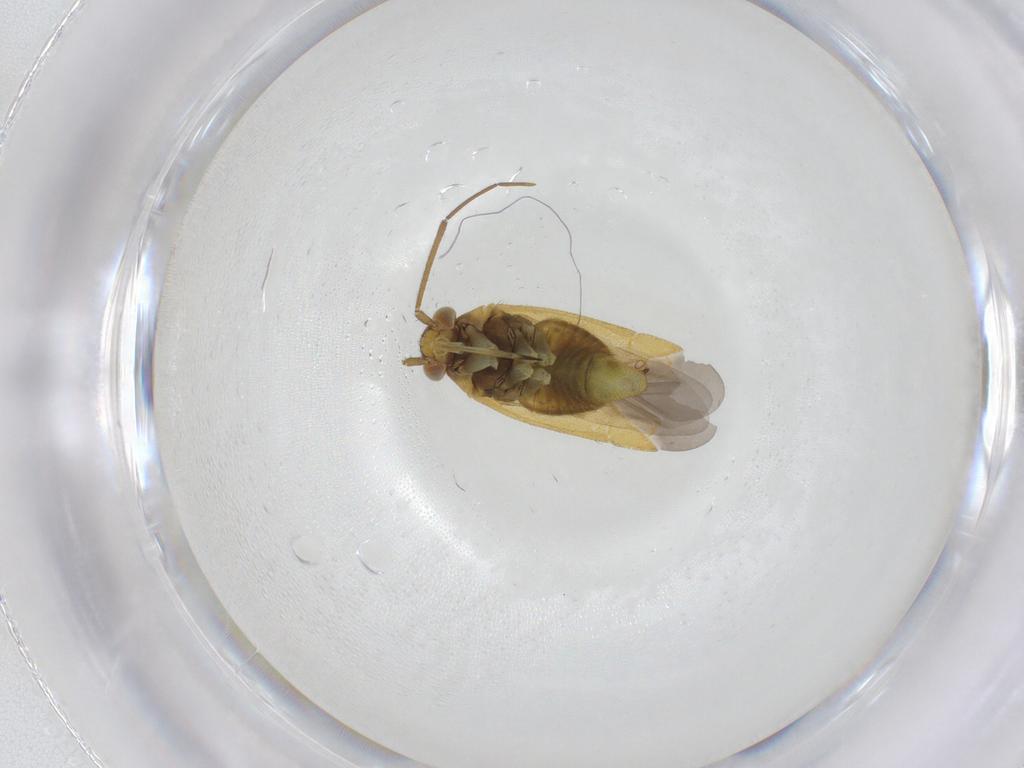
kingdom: Animalia
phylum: Arthropoda
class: Insecta
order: Hemiptera
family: Miridae
